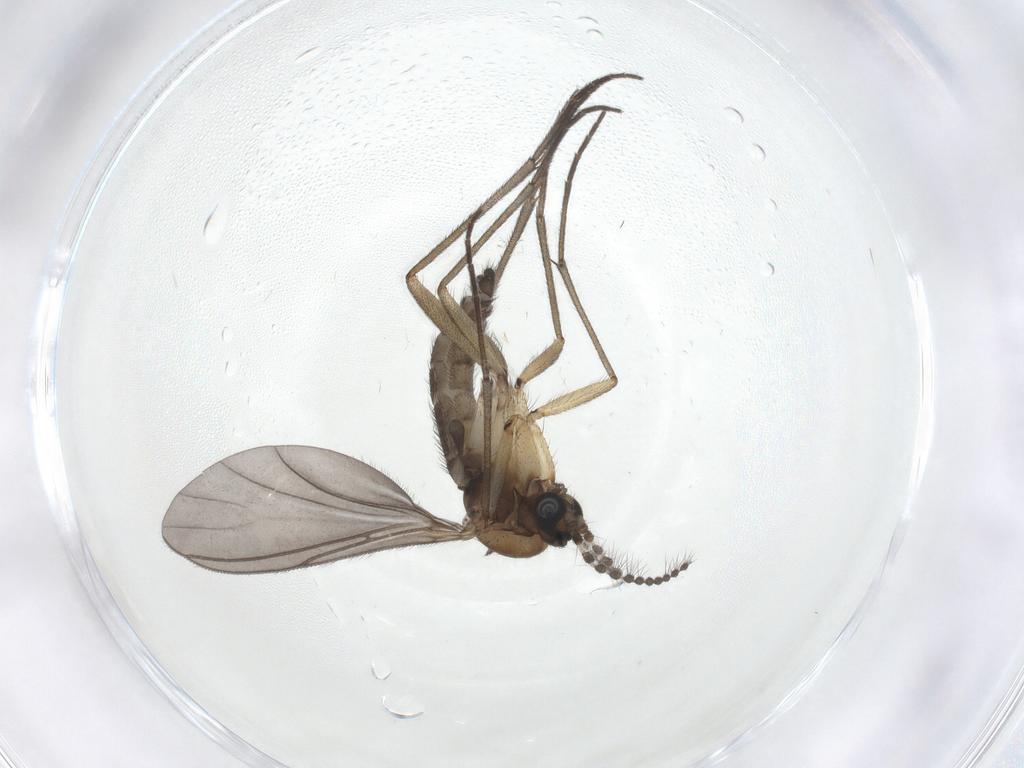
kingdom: Animalia
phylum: Arthropoda
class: Insecta
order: Diptera
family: Sciaridae
